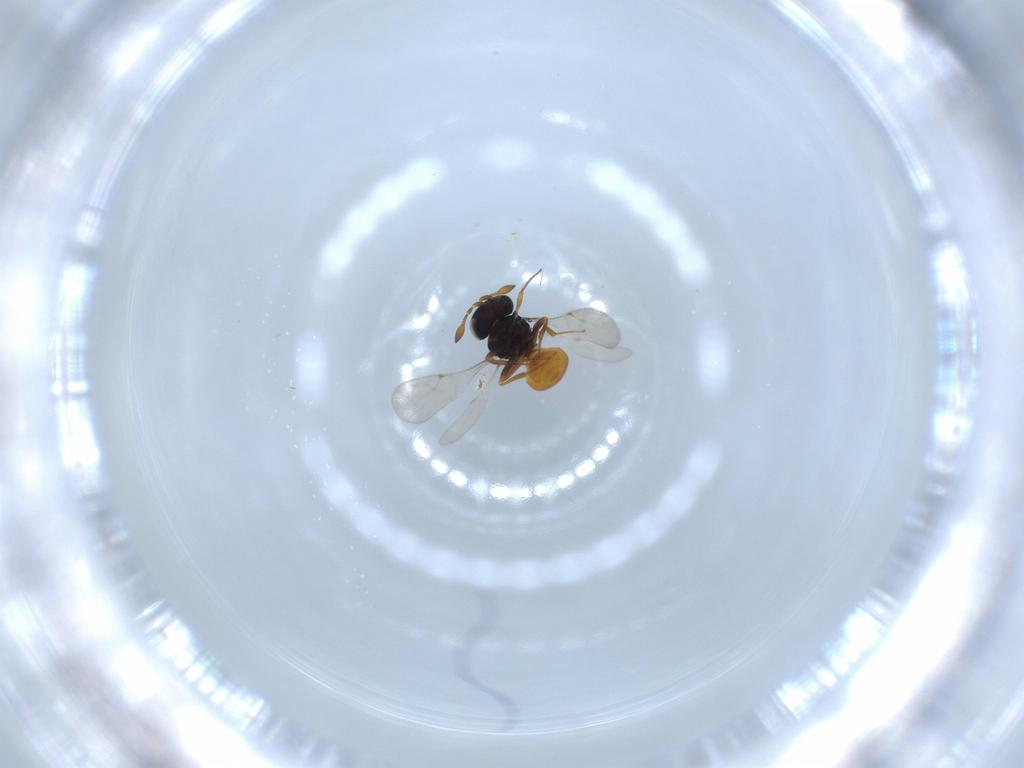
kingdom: Animalia
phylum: Arthropoda
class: Insecta
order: Hymenoptera
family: Scelionidae
